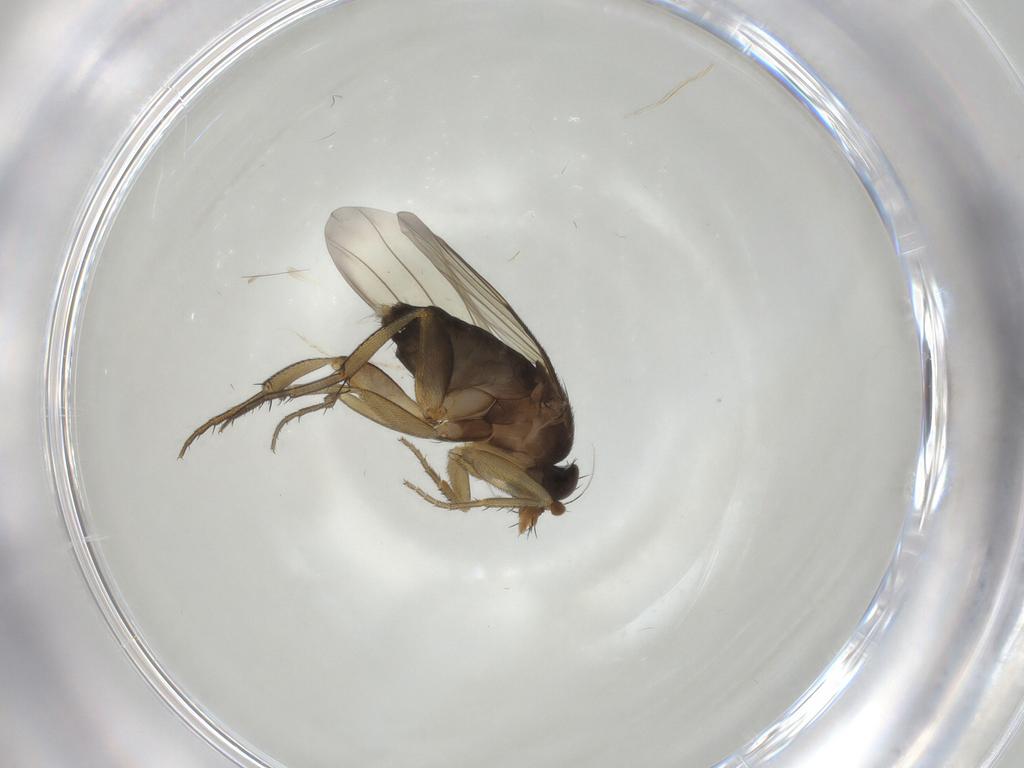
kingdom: Animalia
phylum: Arthropoda
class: Insecta
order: Diptera
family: Phoridae
